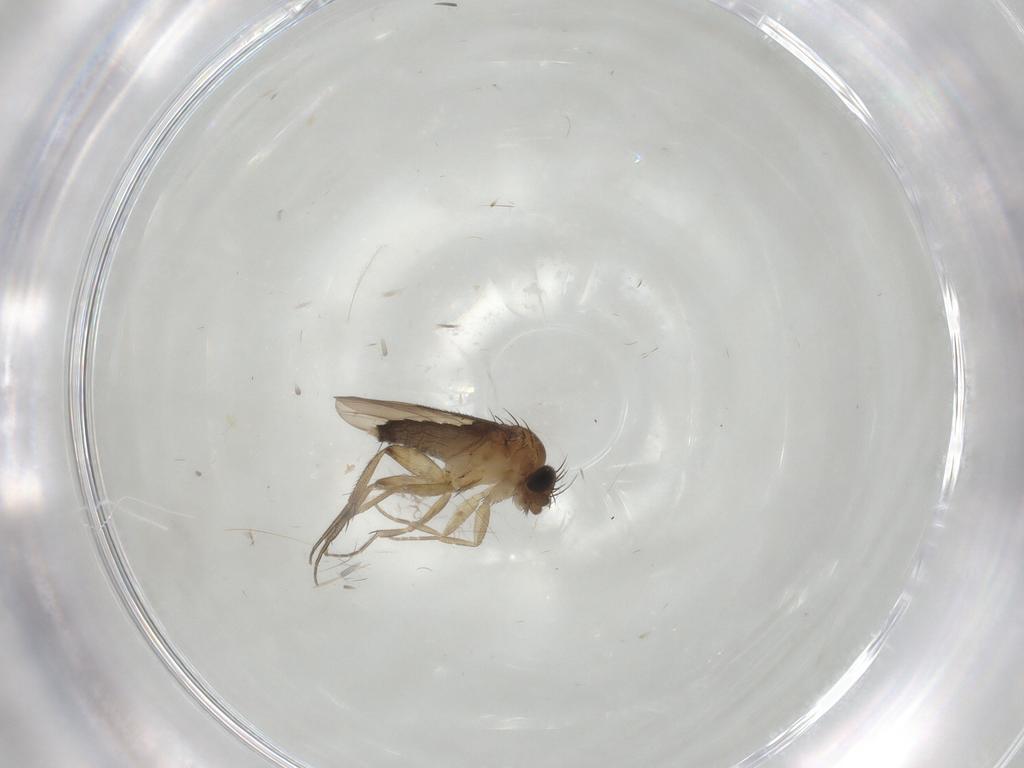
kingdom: Animalia
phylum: Arthropoda
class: Insecta
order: Diptera
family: Phoridae
